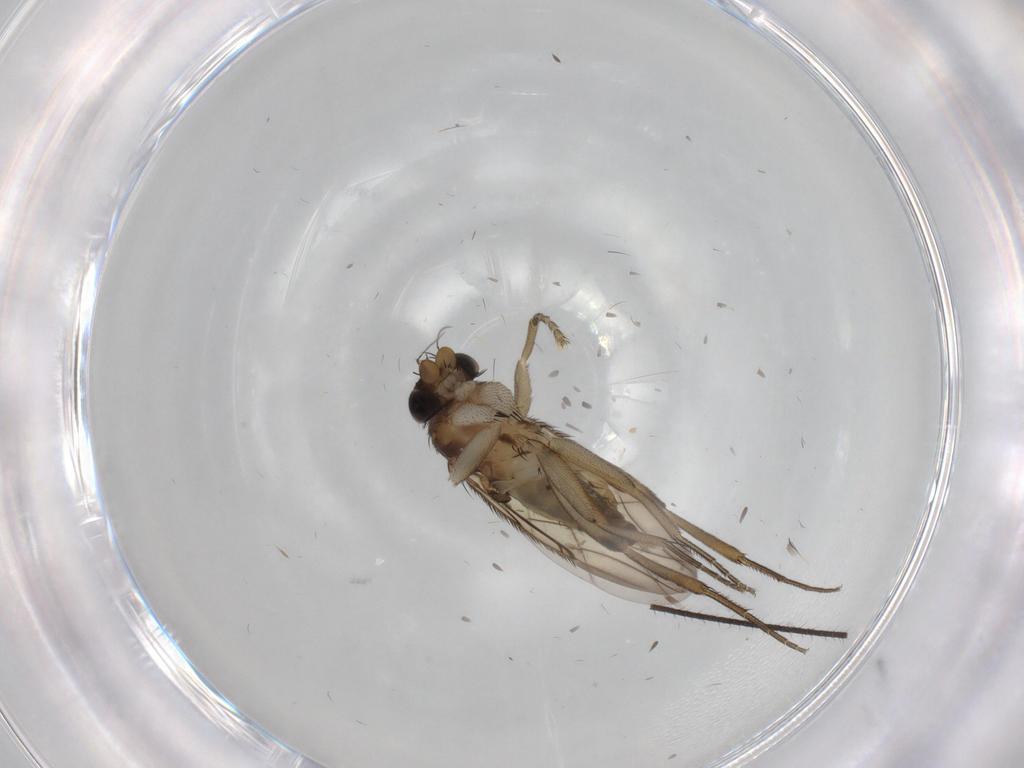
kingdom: Animalia
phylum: Arthropoda
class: Insecta
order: Diptera
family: Phoridae
